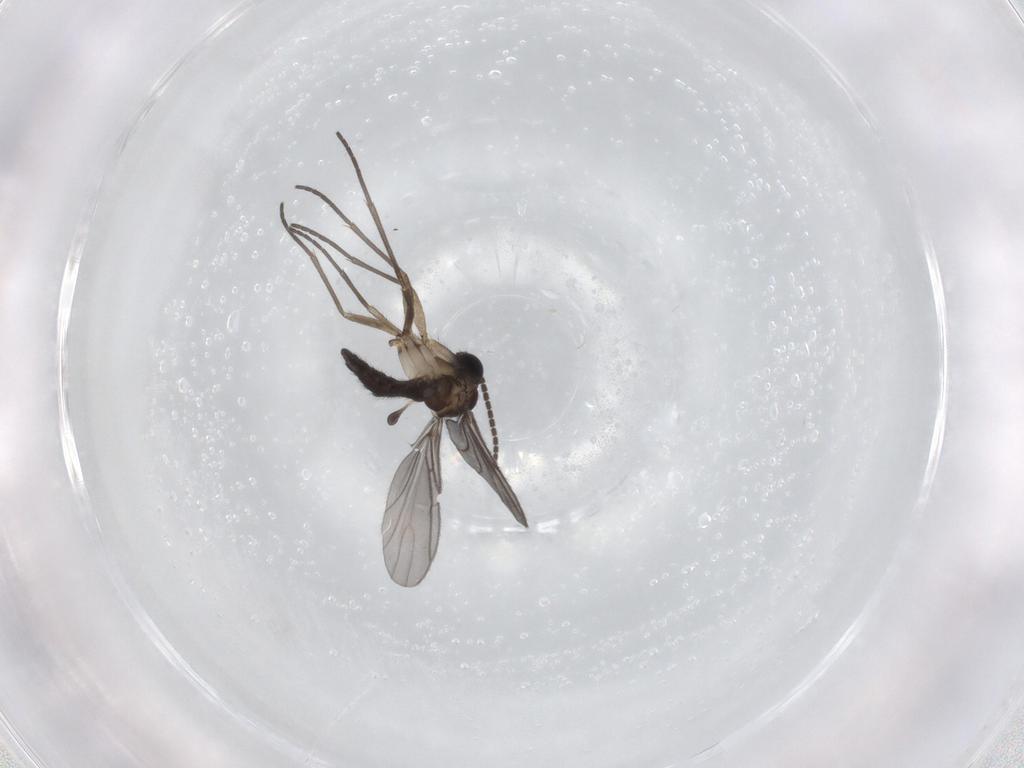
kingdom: Animalia
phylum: Arthropoda
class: Insecta
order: Diptera
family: Sciaridae
